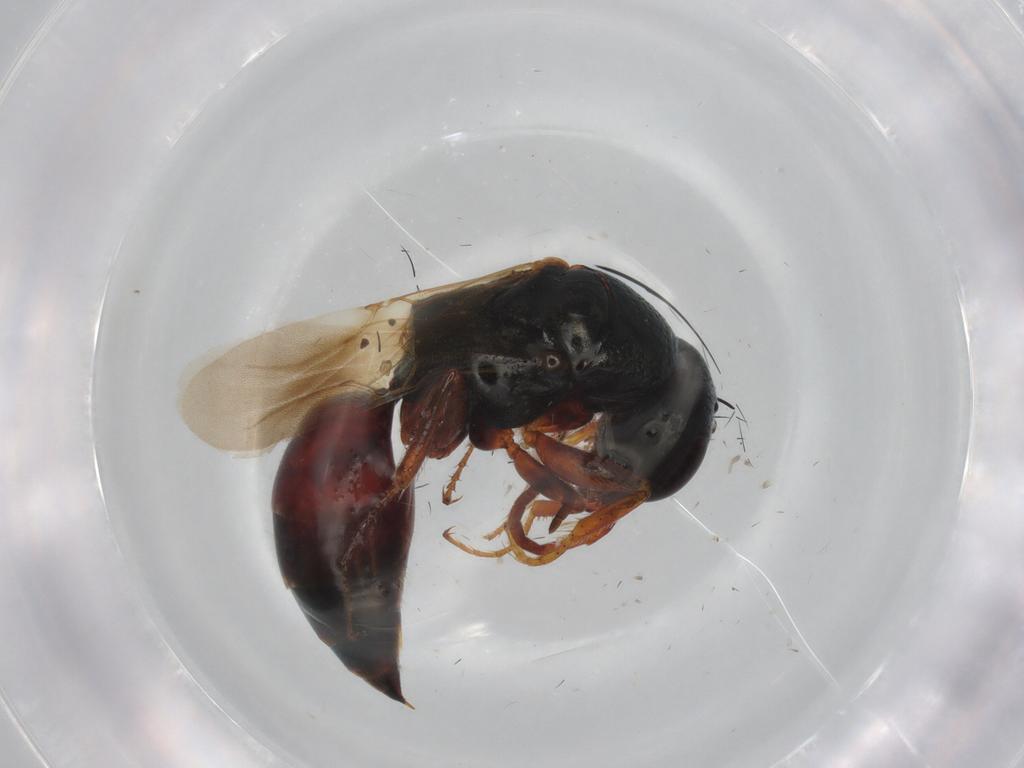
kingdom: Animalia
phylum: Arthropoda
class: Insecta
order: Hymenoptera
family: Bethylidae
